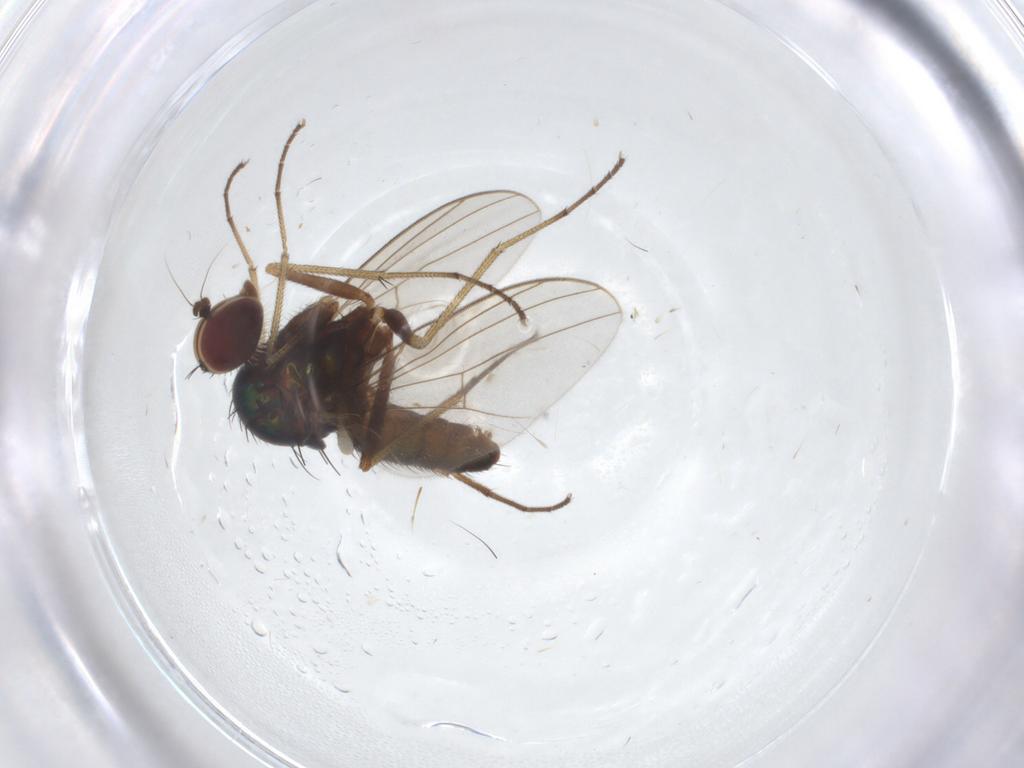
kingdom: Animalia
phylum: Arthropoda
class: Insecta
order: Diptera
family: Dolichopodidae
